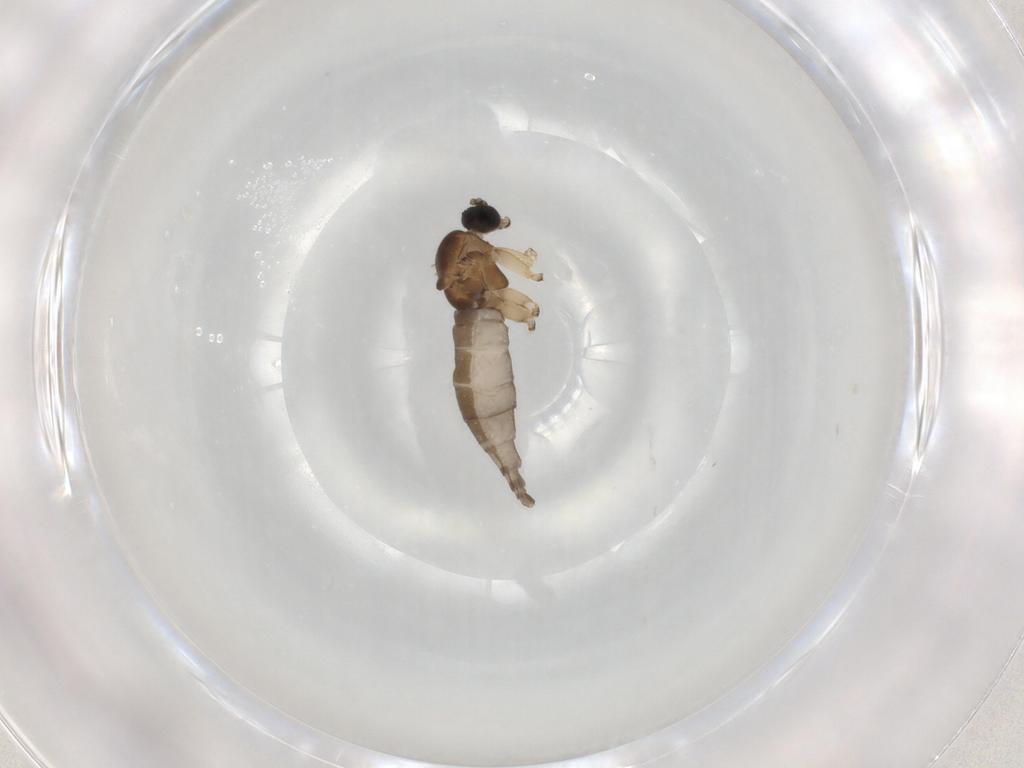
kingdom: Animalia
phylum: Arthropoda
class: Insecta
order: Diptera
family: Sciaridae
